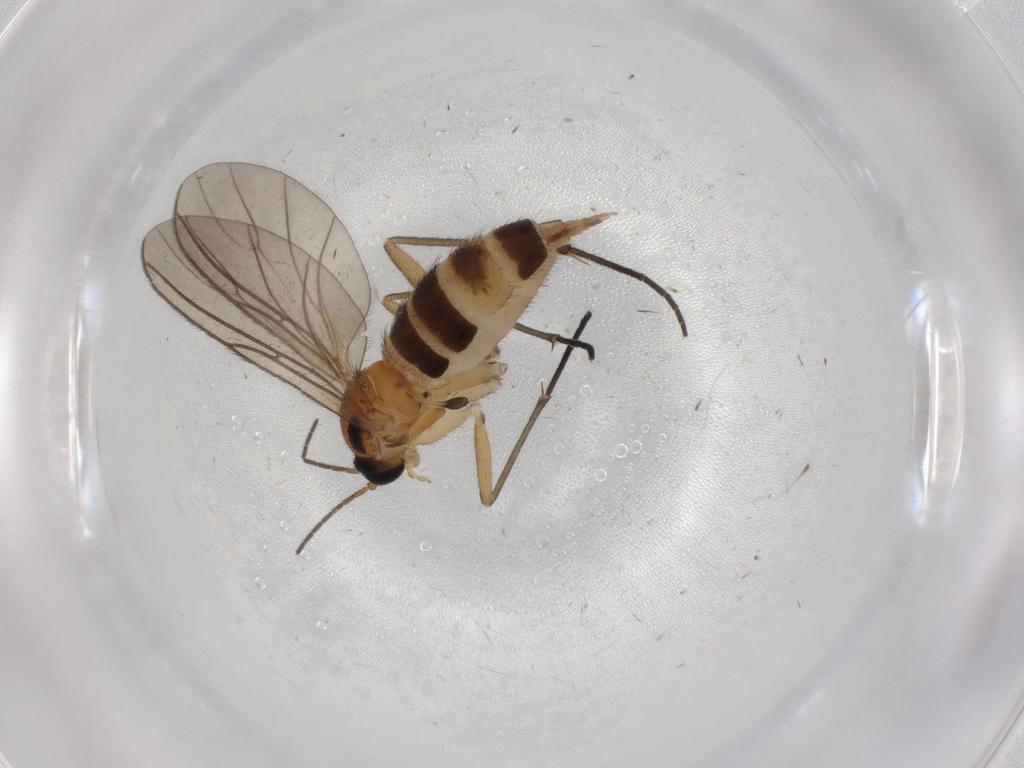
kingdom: Animalia
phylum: Arthropoda
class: Insecta
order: Diptera
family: Sciaridae
